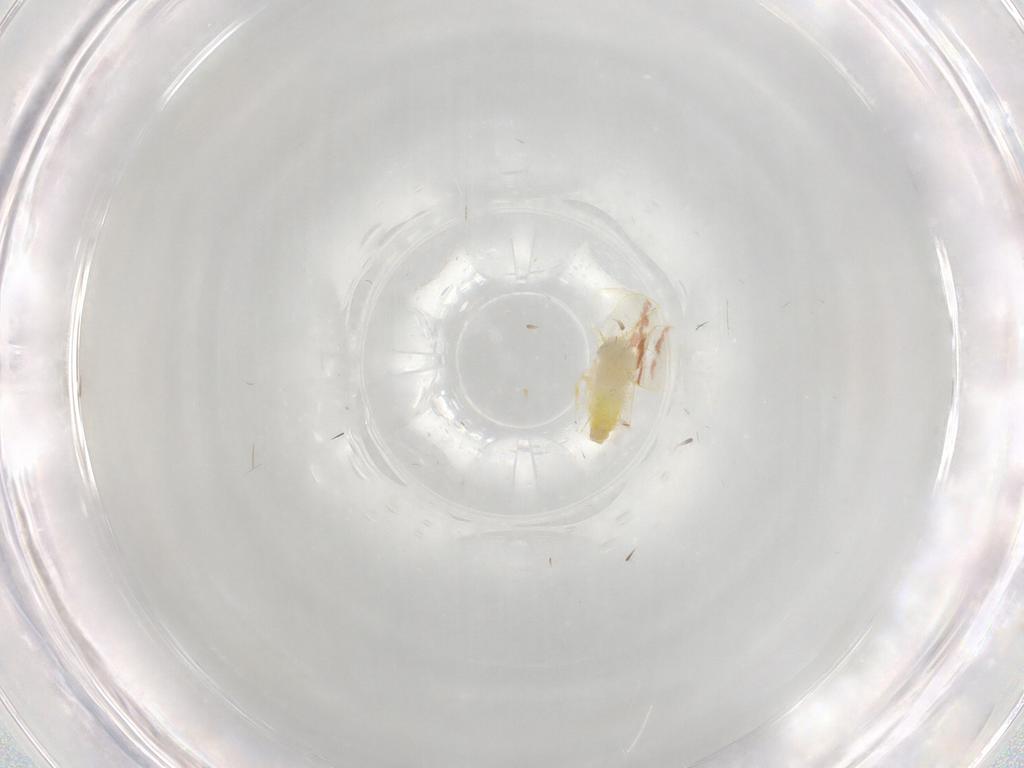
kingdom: Animalia
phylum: Arthropoda
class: Insecta
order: Hemiptera
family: Aleyrodidae
